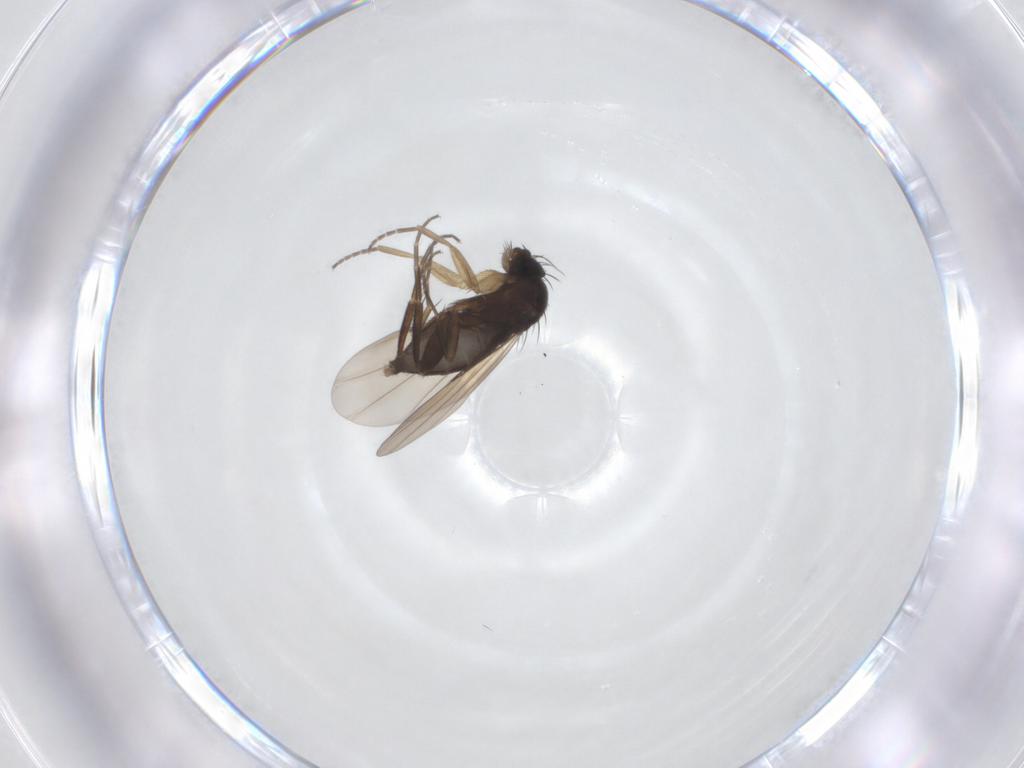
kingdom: Animalia
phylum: Arthropoda
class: Insecta
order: Diptera
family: Phoridae
